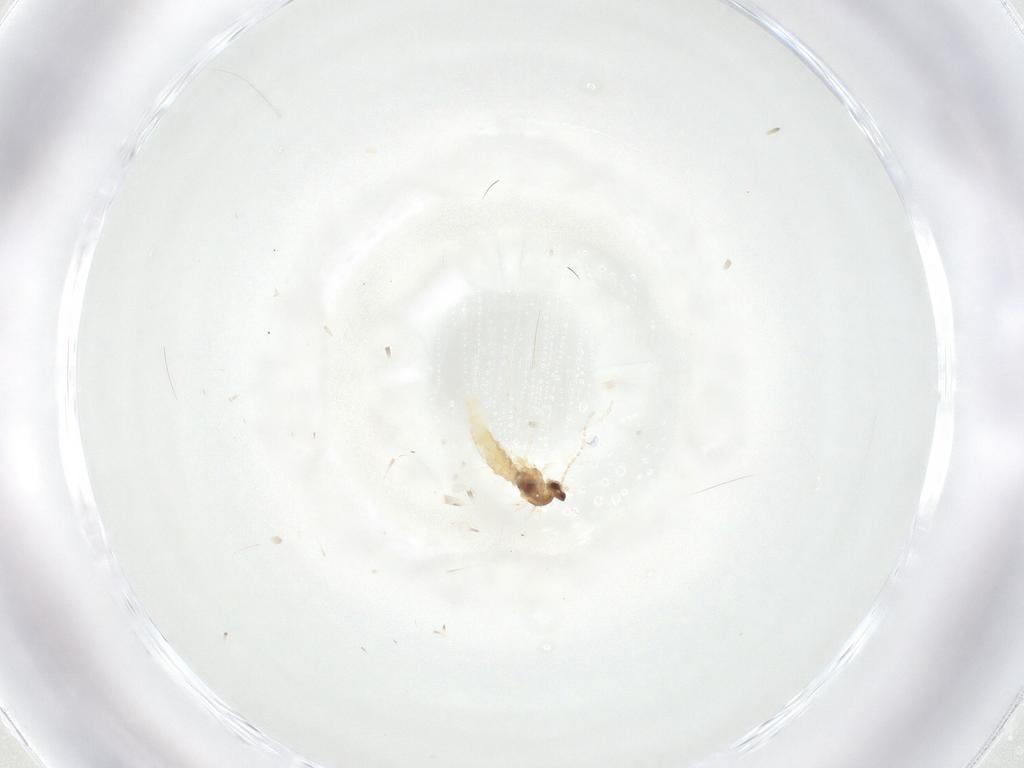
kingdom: Animalia
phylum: Arthropoda
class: Insecta
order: Diptera
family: Cecidomyiidae
